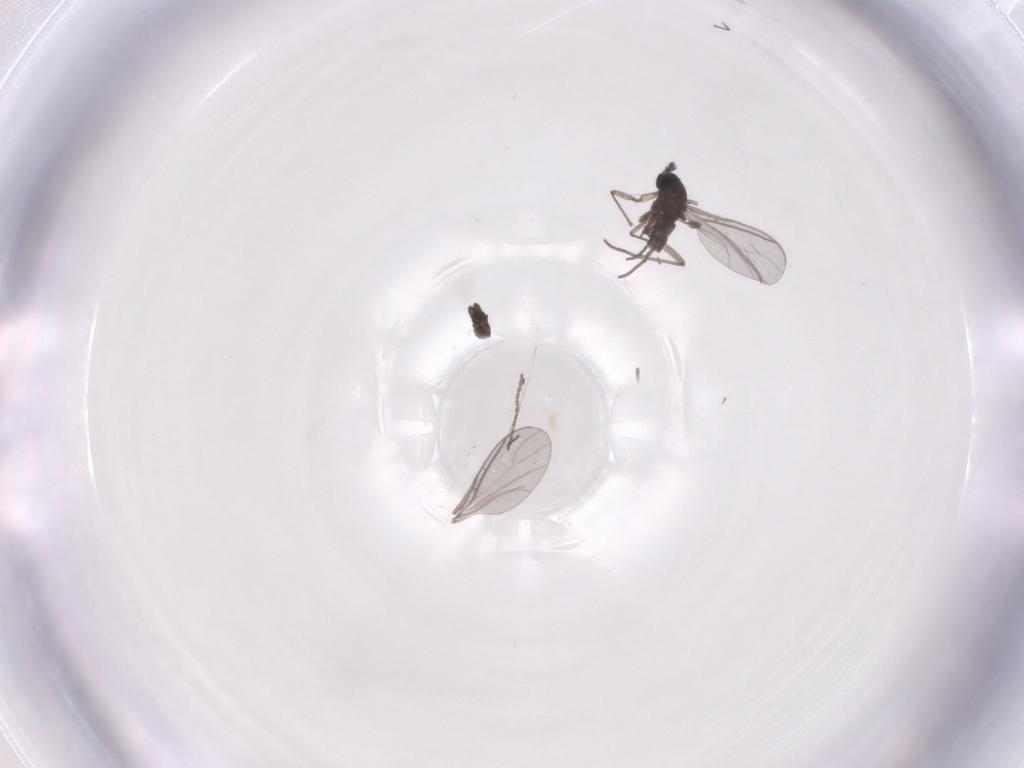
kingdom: Animalia
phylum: Arthropoda
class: Insecta
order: Diptera
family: Sciaridae
